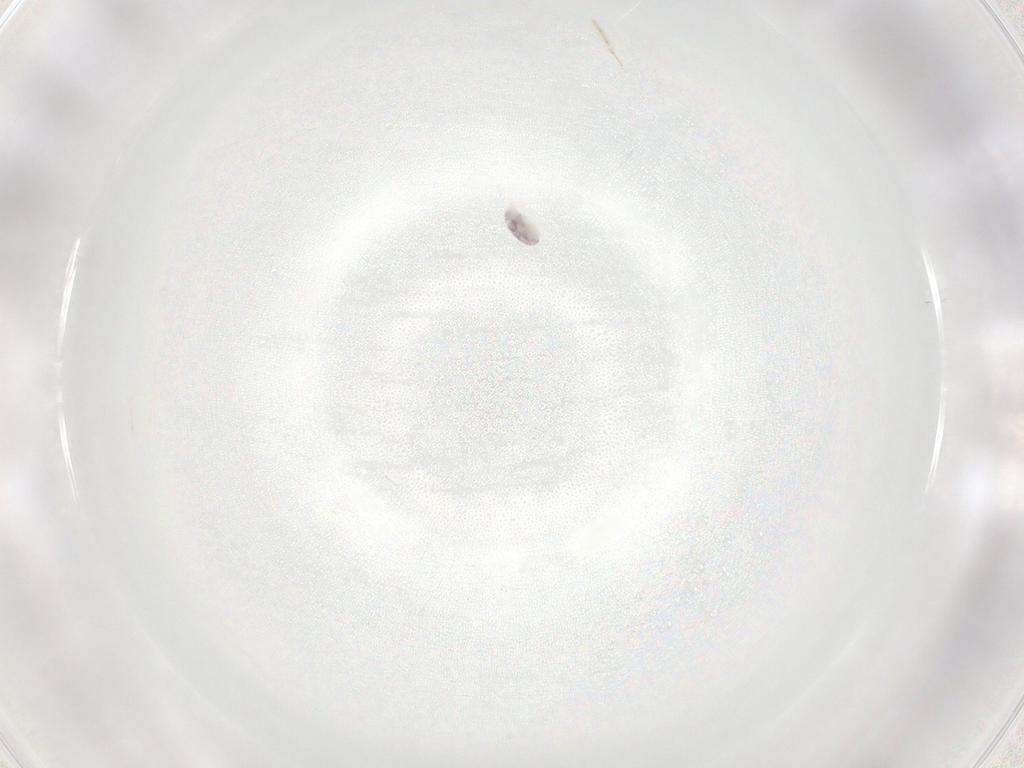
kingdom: Animalia
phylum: Arthropoda
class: Arachnida
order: Trombidiformes
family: Eupodidae
